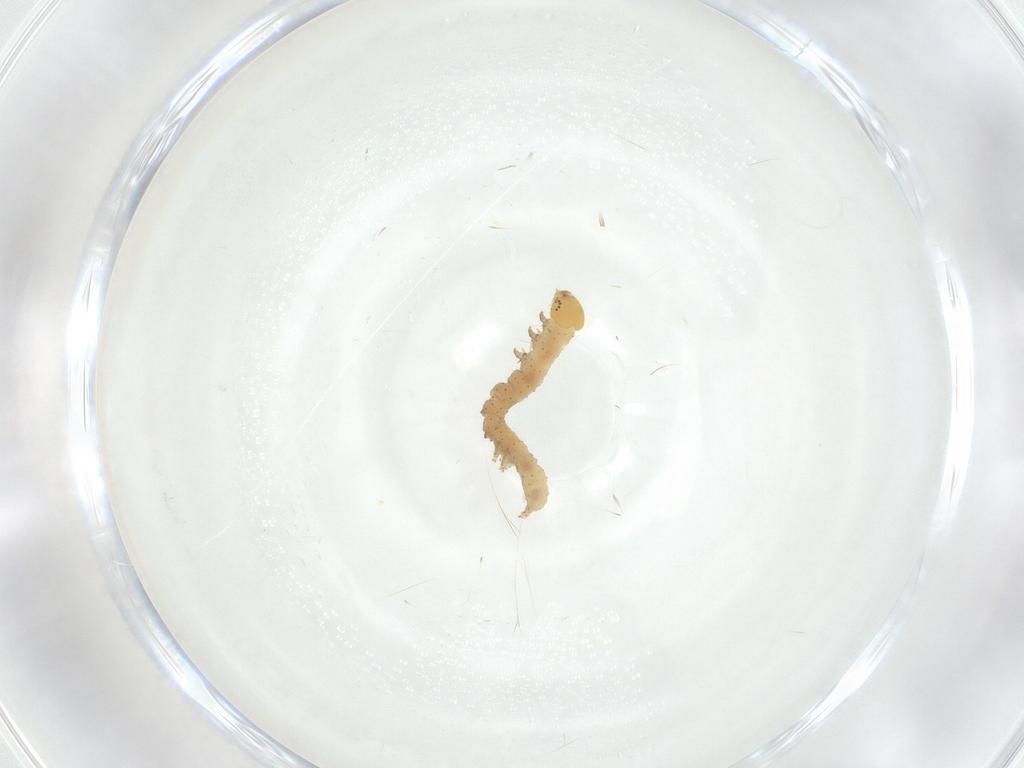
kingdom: Animalia
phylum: Arthropoda
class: Insecta
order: Lepidoptera
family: Erebidae
